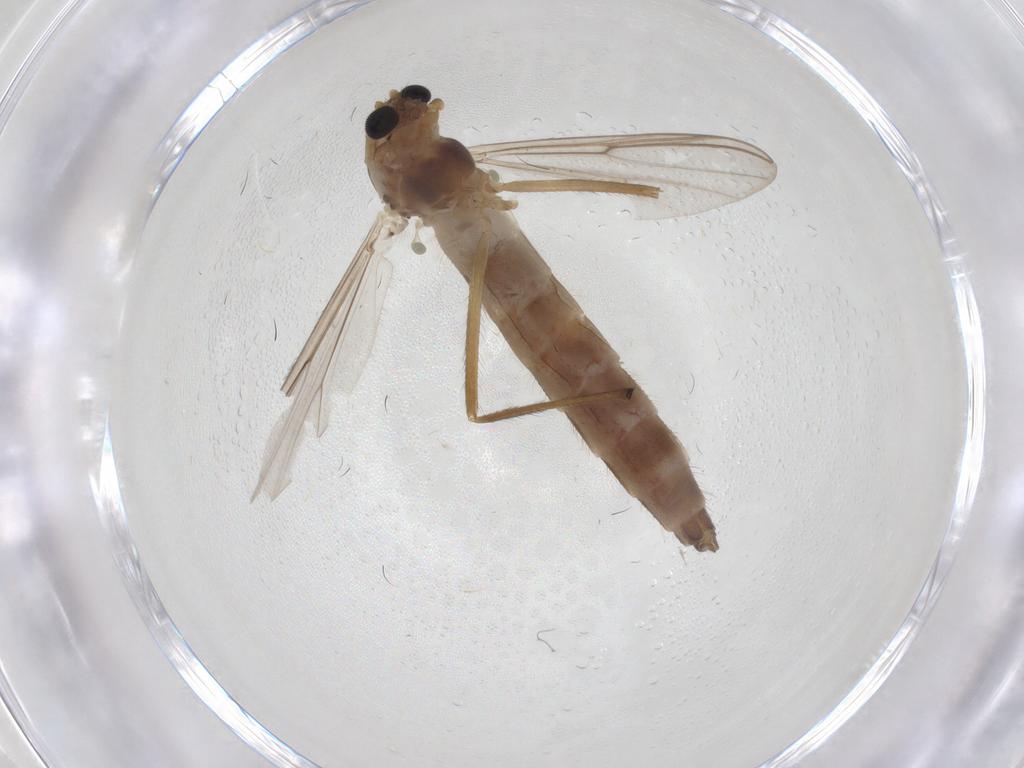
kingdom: Animalia
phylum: Arthropoda
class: Insecta
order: Diptera
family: Chironomidae
